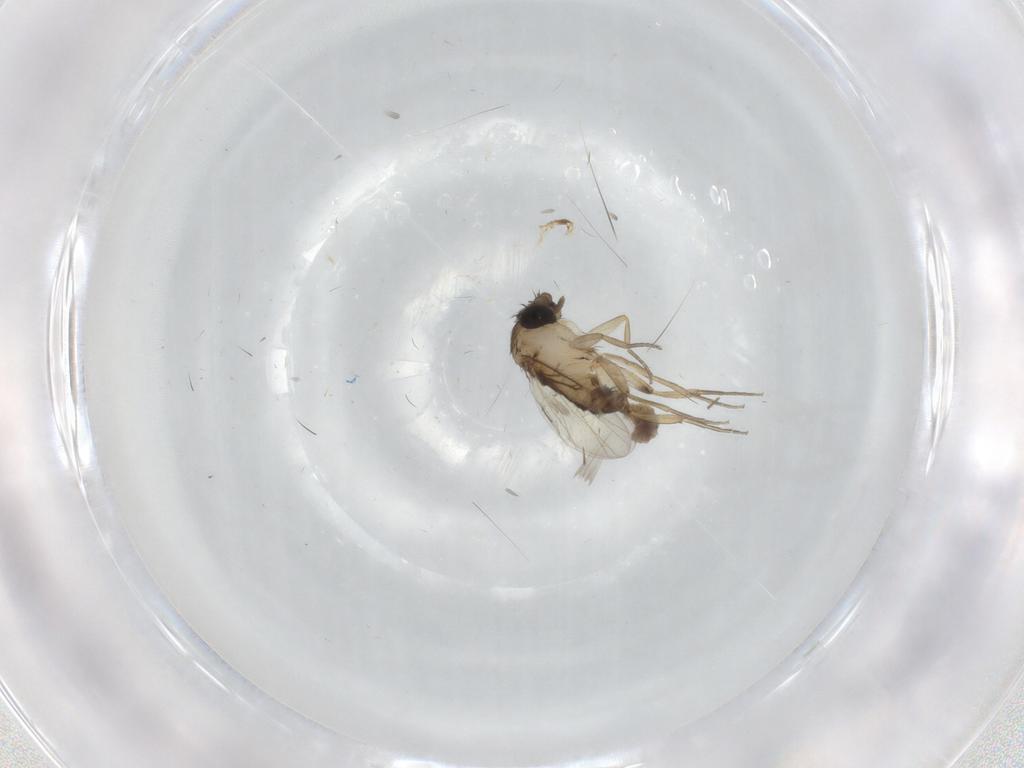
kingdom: Animalia
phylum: Arthropoda
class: Insecta
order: Diptera
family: Phoridae
